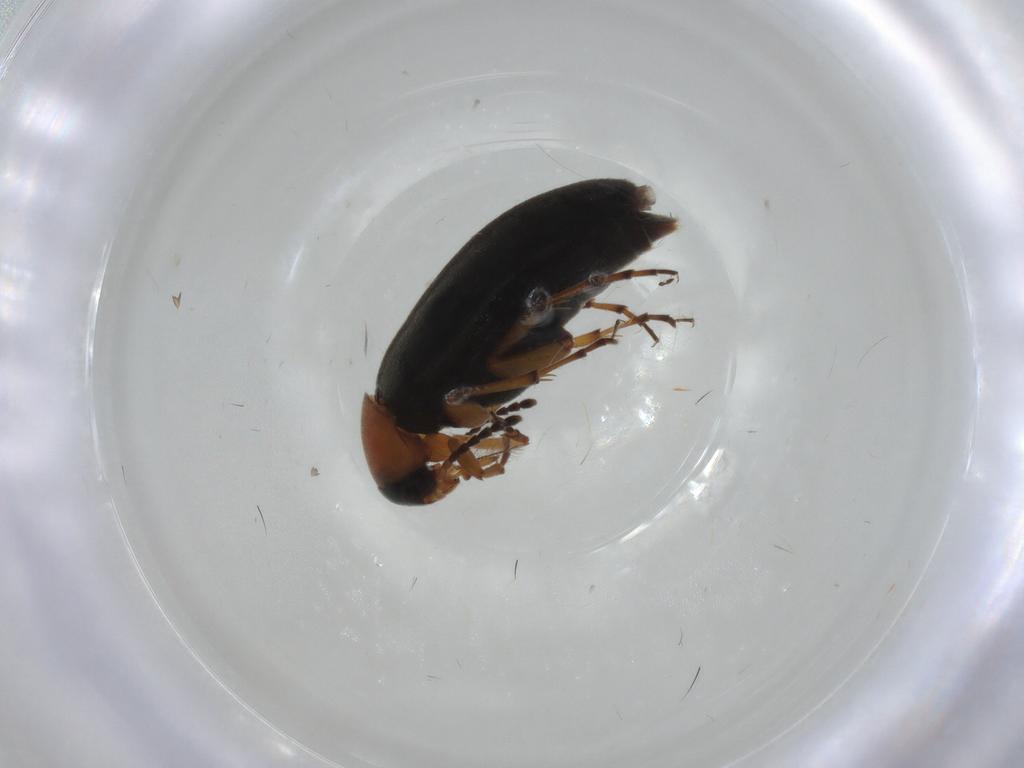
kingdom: Animalia
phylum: Arthropoda
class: Insecta
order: Coleoptera
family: Scraptiidae
